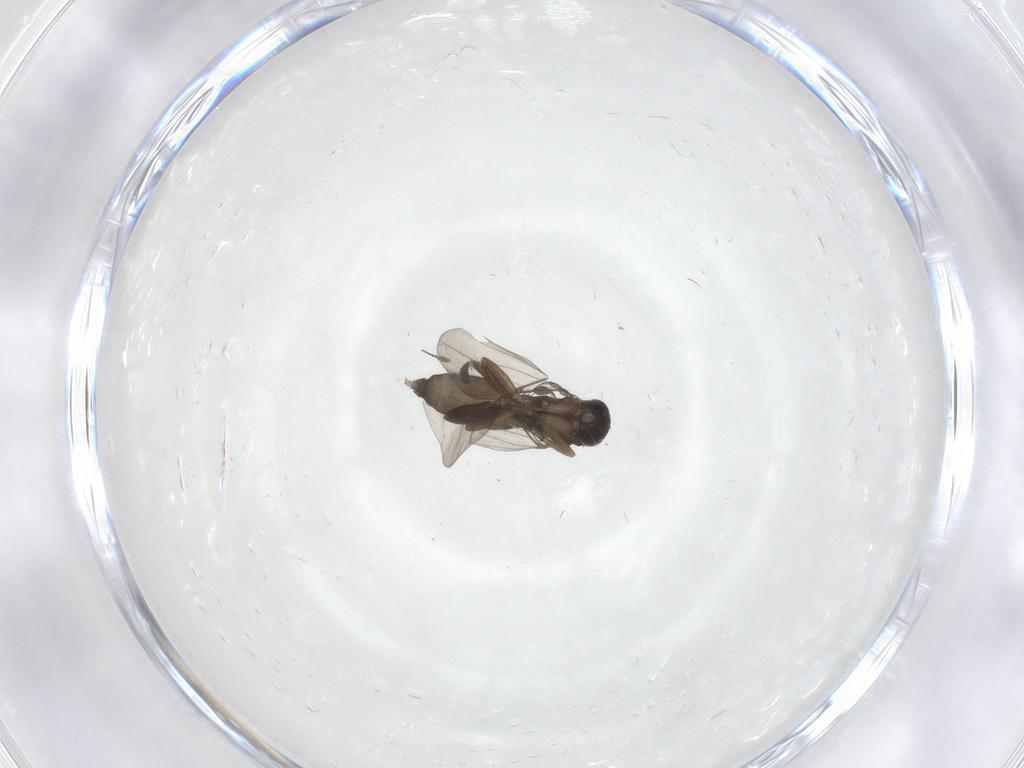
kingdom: Animalia
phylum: Arthropoda
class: Insecta
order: Diptera
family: Phoridae
